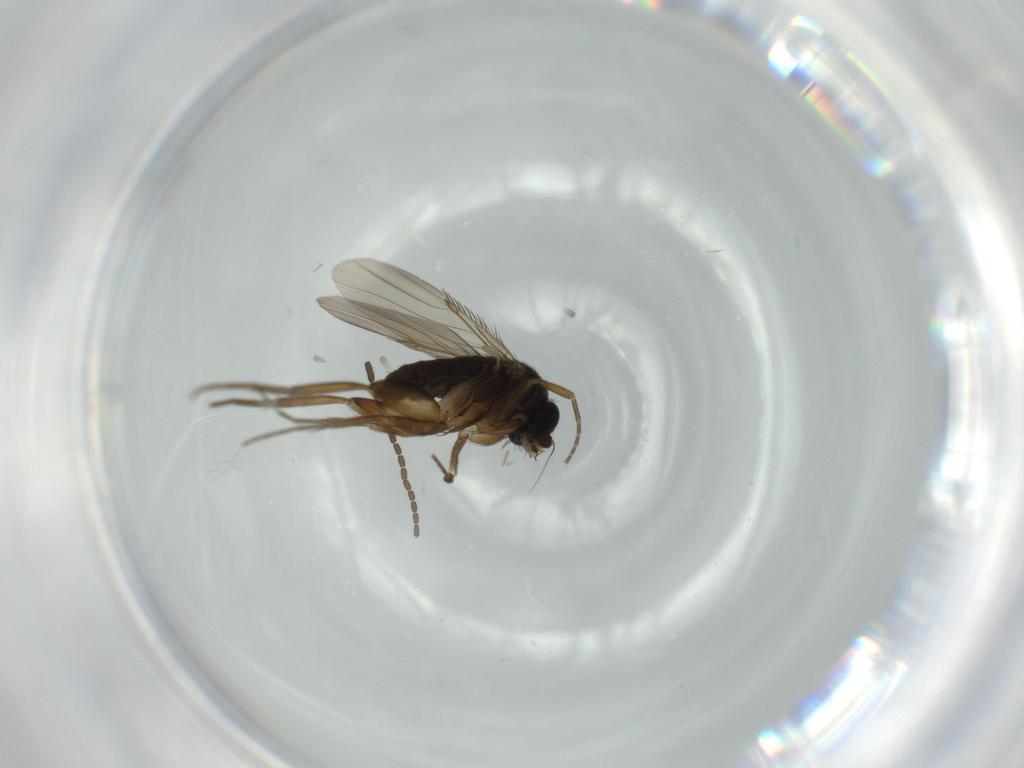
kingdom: Animalia
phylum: Arthropoda
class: Insecta
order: Diptera
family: Phoridae
